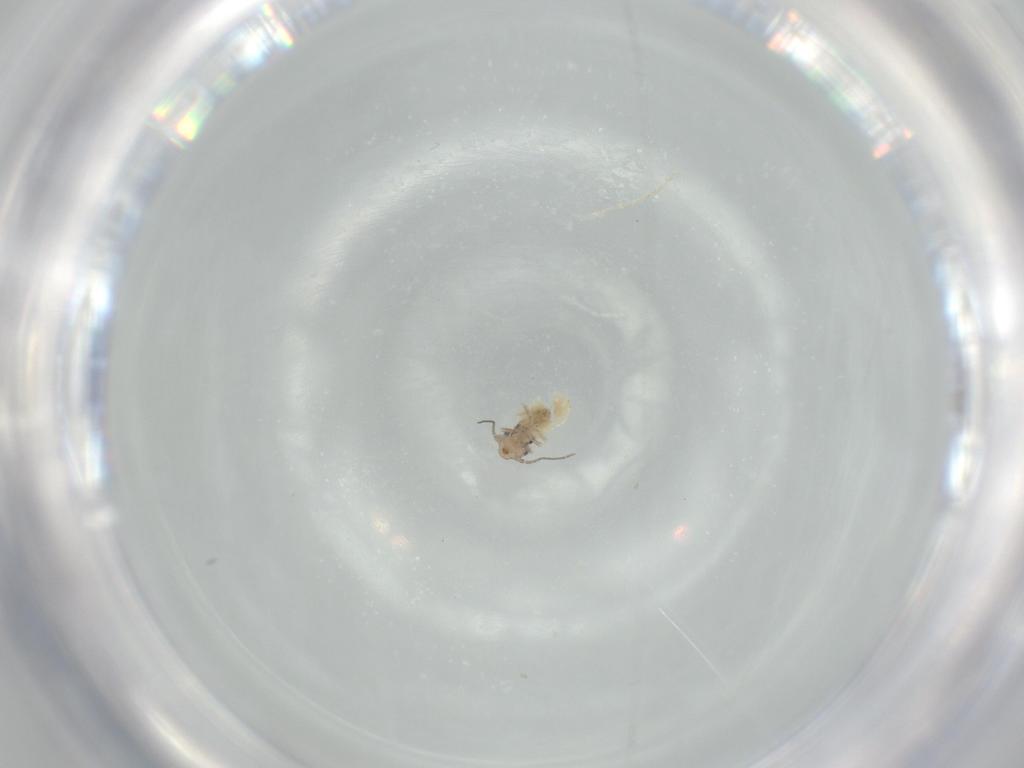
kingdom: Animalia
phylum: Arthropoda
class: Insecta
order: Psocodea
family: Lepidopsocidae
